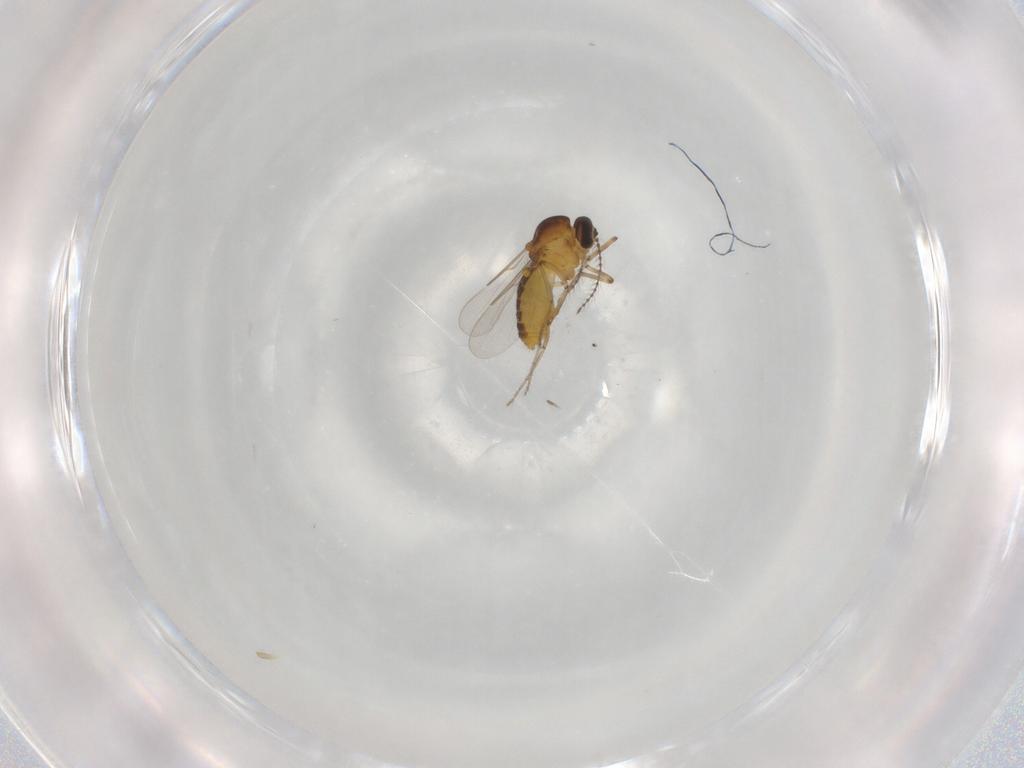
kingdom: Animalia
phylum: Arthropoda
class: Insecta
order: Diptera
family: Ceratopogonidae
